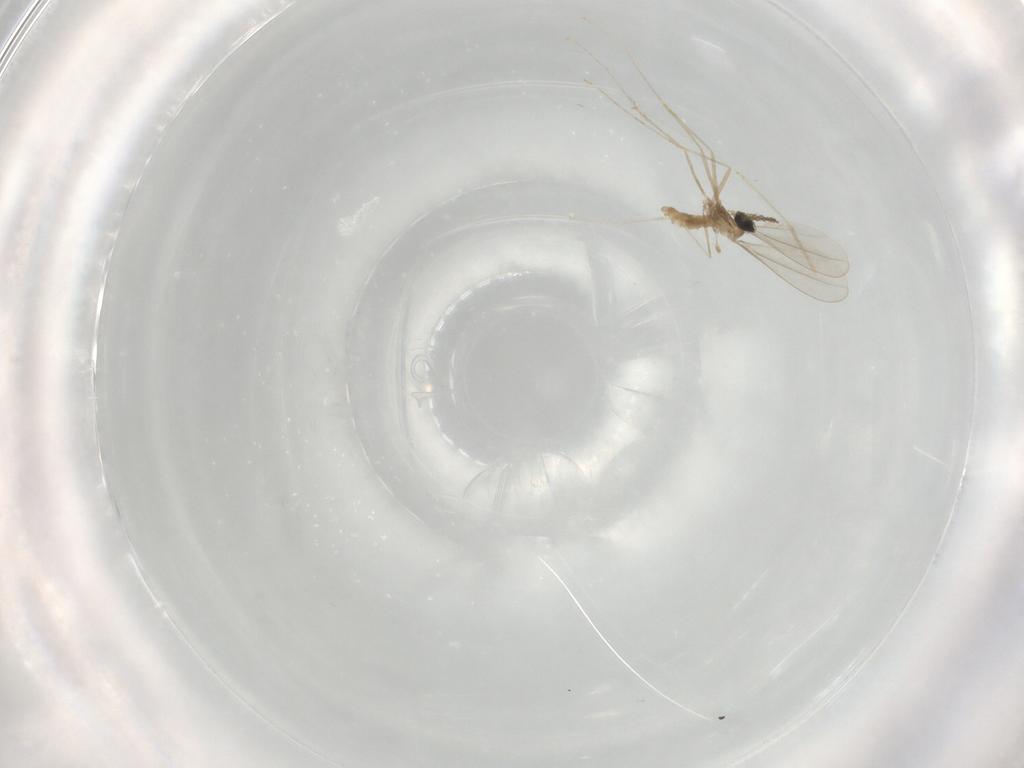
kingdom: Animalia
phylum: Arthropoda
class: Insecta
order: Diptera
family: Cecidomyiidae
